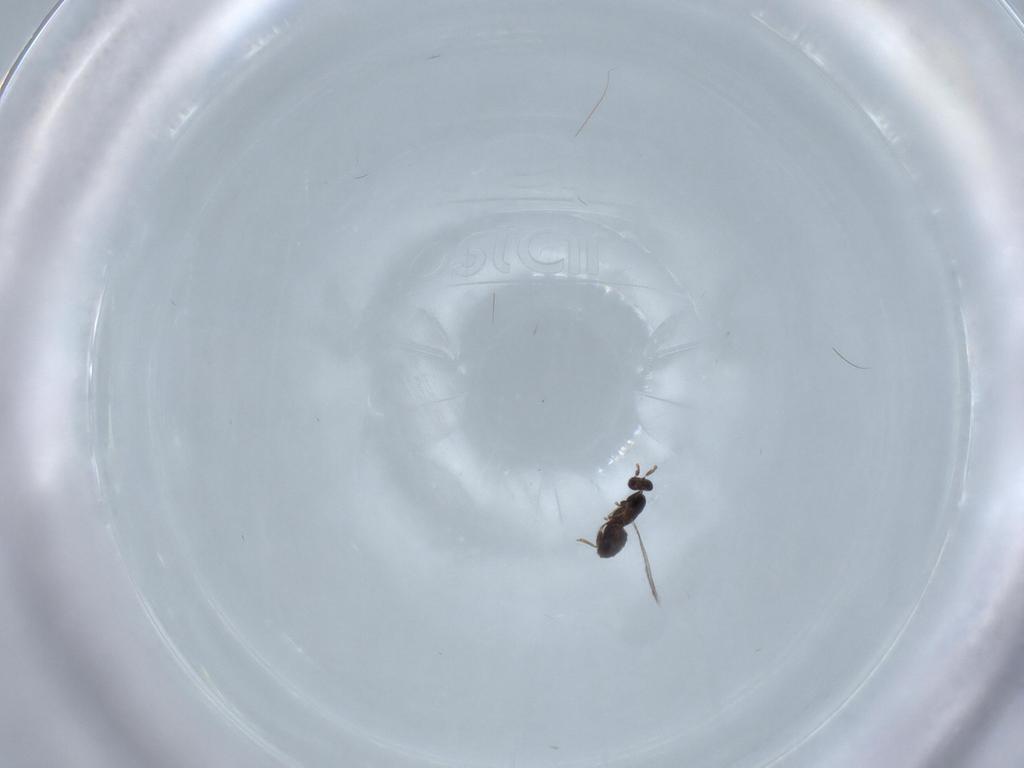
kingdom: Animalia
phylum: Arthropoda
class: Insecta
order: Hymenoptera
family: Mymaridae
